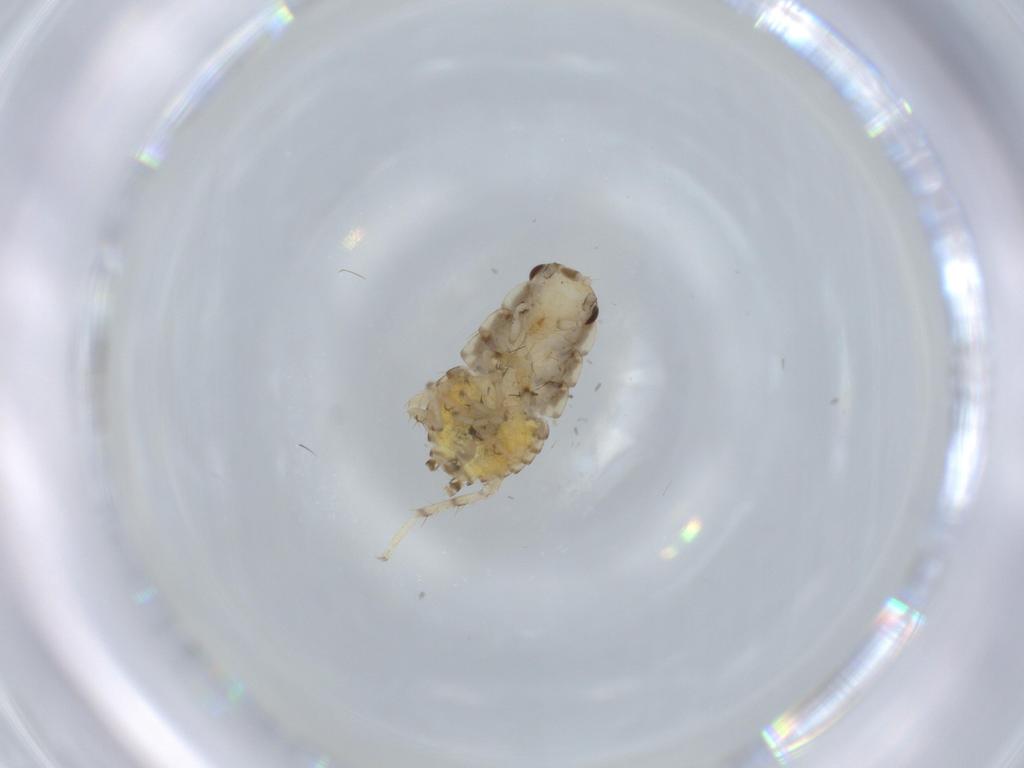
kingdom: Animalia
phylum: Arthropoda
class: Insecta
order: Blattodea
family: Ectobiidae
